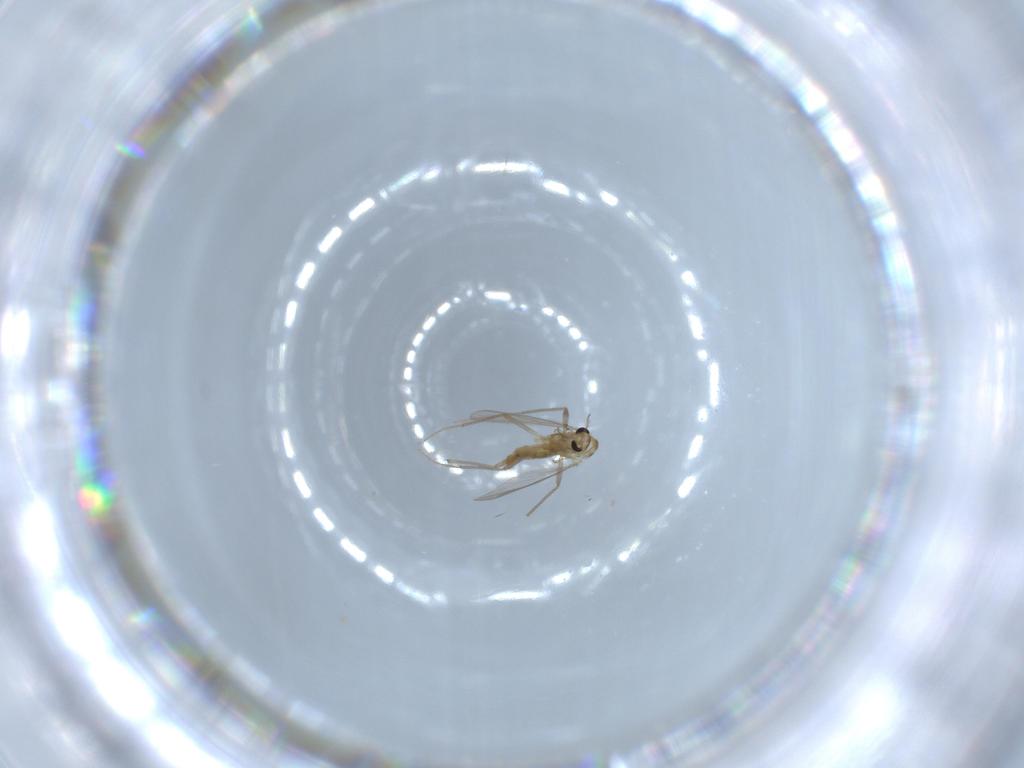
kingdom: Animalia
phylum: Arthropoda
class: Insecta
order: Diptera
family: Chironomidae
